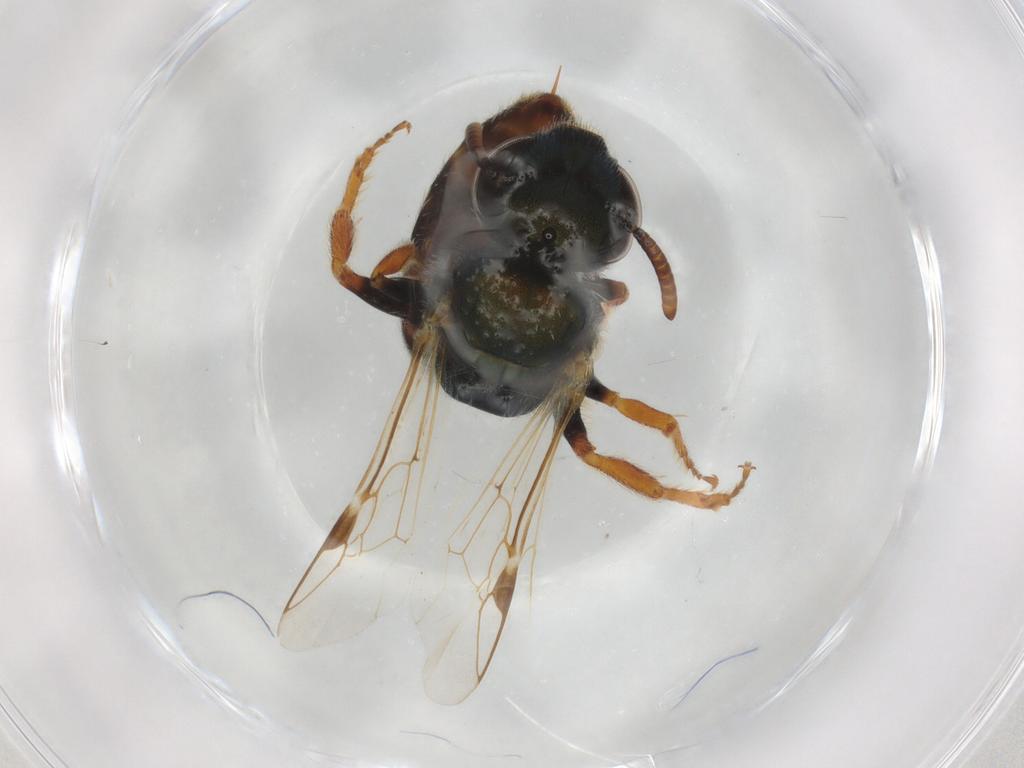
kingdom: Animalia
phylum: Arthropoda
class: Insecta
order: Hymenoptera
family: Halictidae
